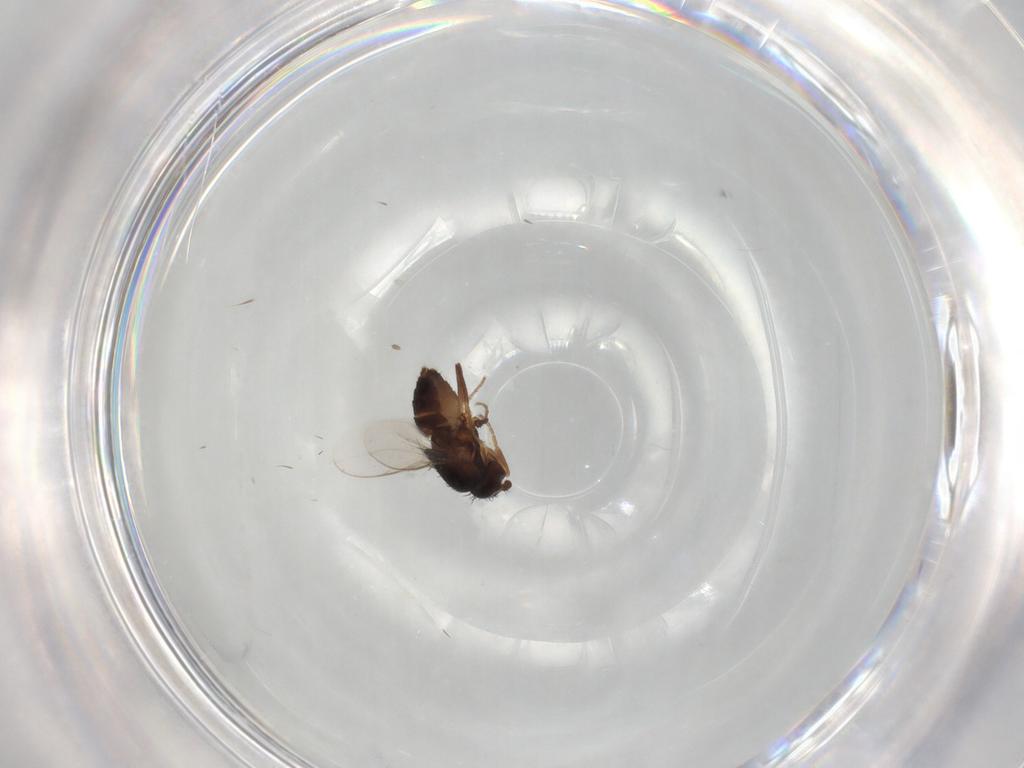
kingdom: Animalia
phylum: Arthropoda
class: Insecta
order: Diptera
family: Sphaeroceridae
